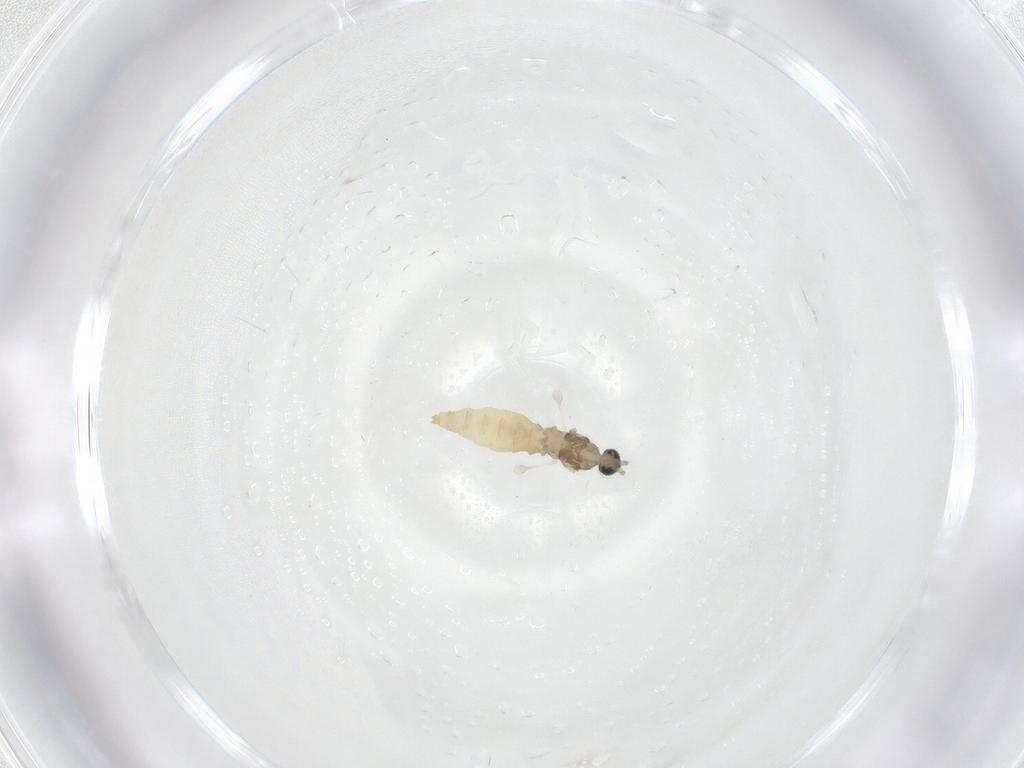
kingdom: Animalia
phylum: Arthropoda
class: Insecta
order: Diptera
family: Cecidomyiidae
